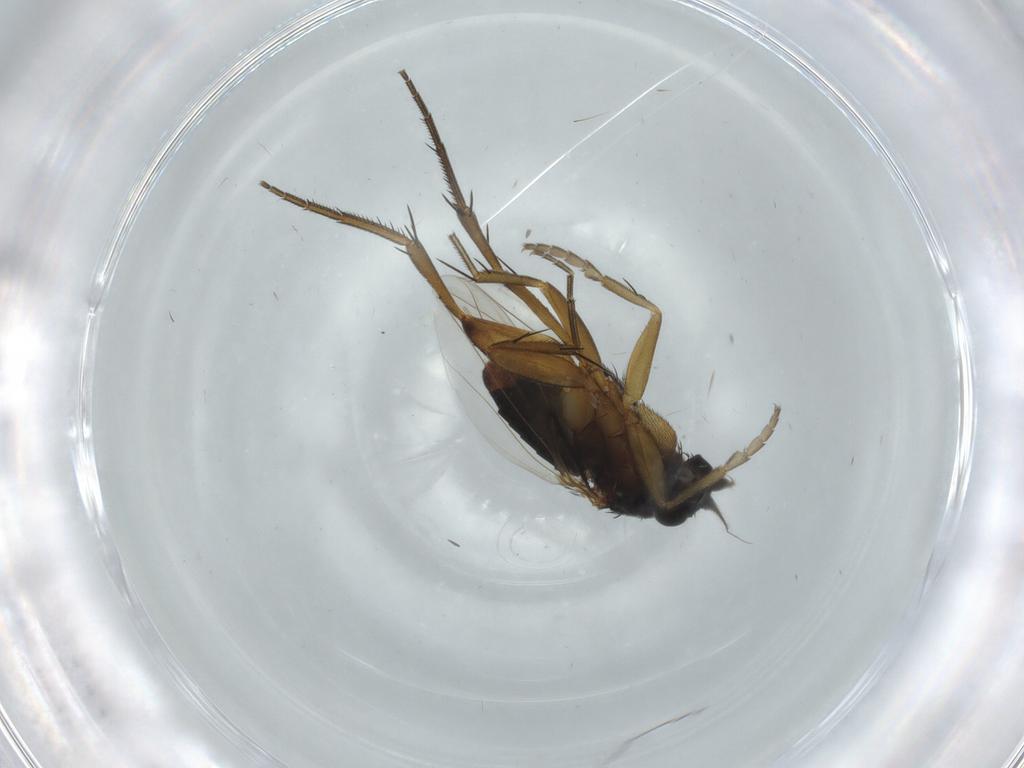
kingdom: Animalia
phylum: Arthropoda
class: Insecta
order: Diptera
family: Phoridae
